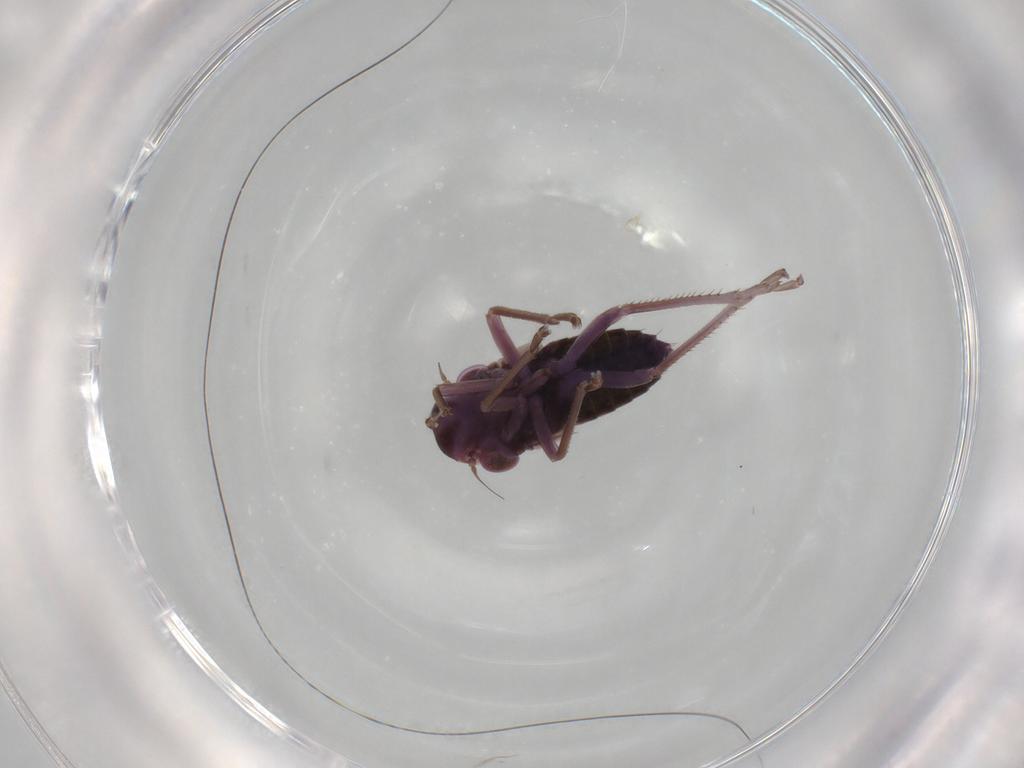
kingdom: Animalia
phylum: Arthropoda
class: Insecta
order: Hemiptera
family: Cicadellidae
